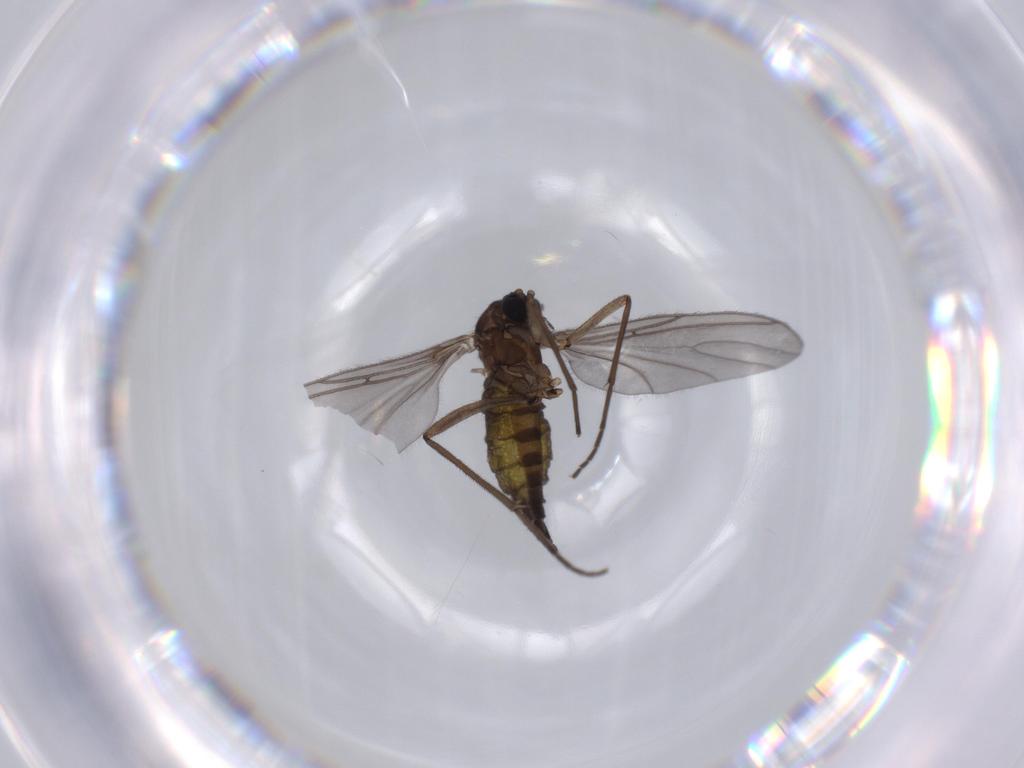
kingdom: Animalia
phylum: Arthropoda
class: Insecta
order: Diptera
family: Sciaridae
